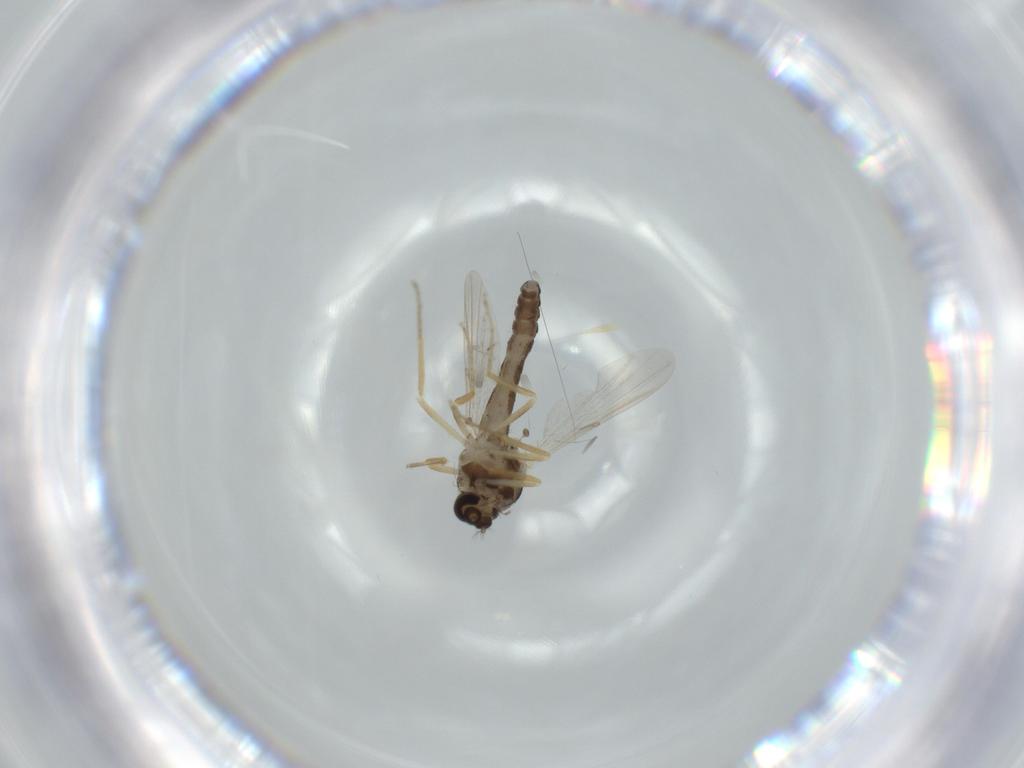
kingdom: Animalia
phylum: Arthropoda
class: Insecta
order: Diptera
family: Ceratopogonidae
